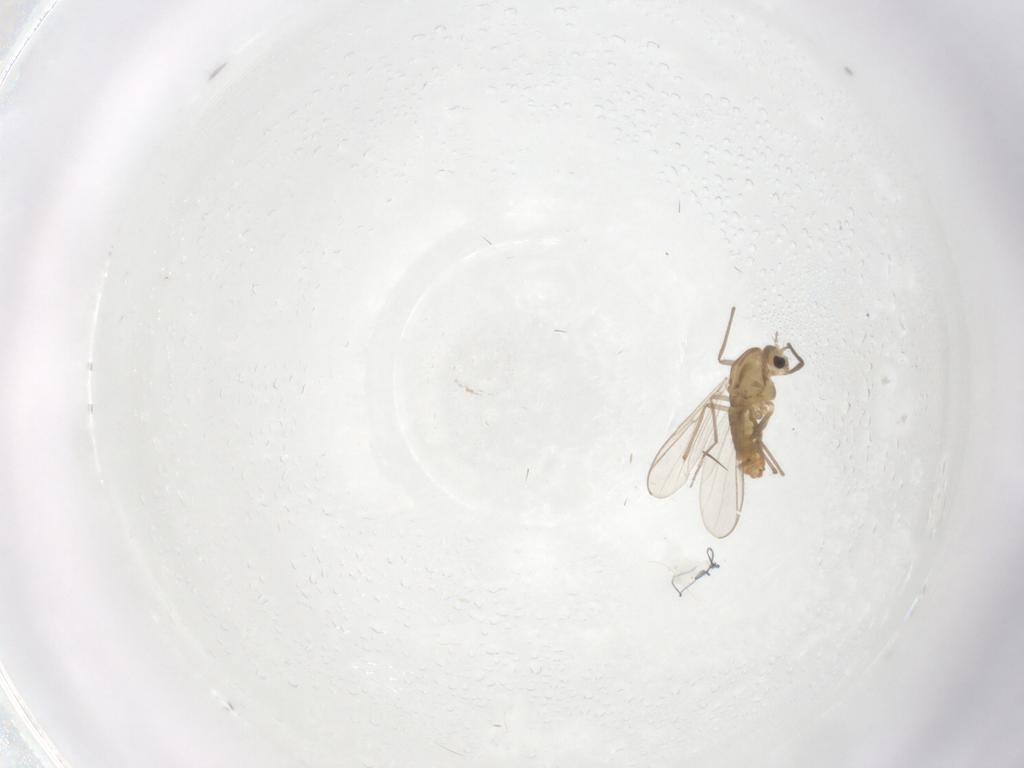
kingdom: Animalia
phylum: Arthropoda
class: Insecta
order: Diptera
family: Chironomidae
